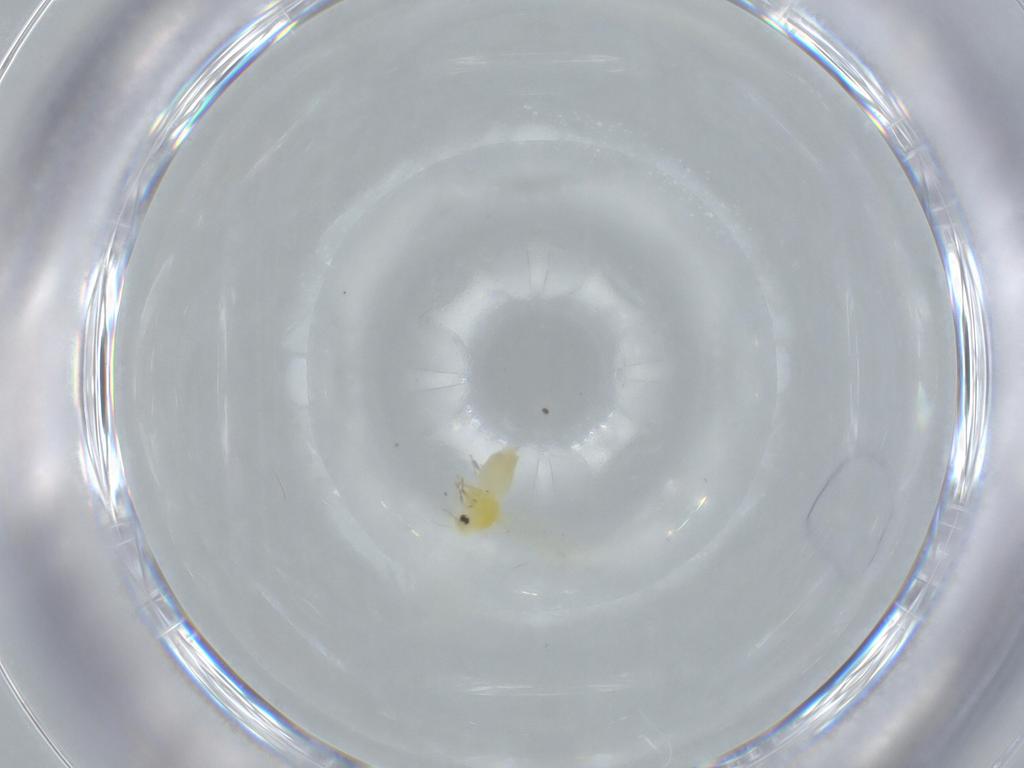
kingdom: Animalia
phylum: Arthropoda
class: Insecta
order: Hemiptera
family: Aleyrodidae
